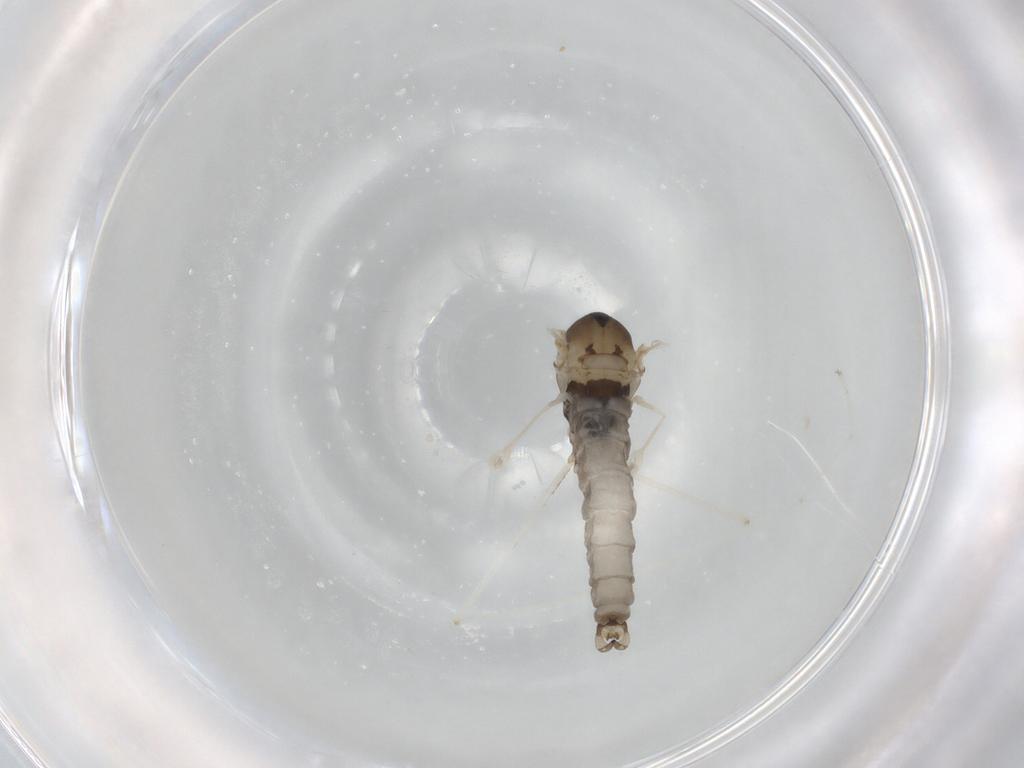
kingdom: Animalia
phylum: Arthropoda
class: Insecta
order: Diptera
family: Cecidomyiidae
